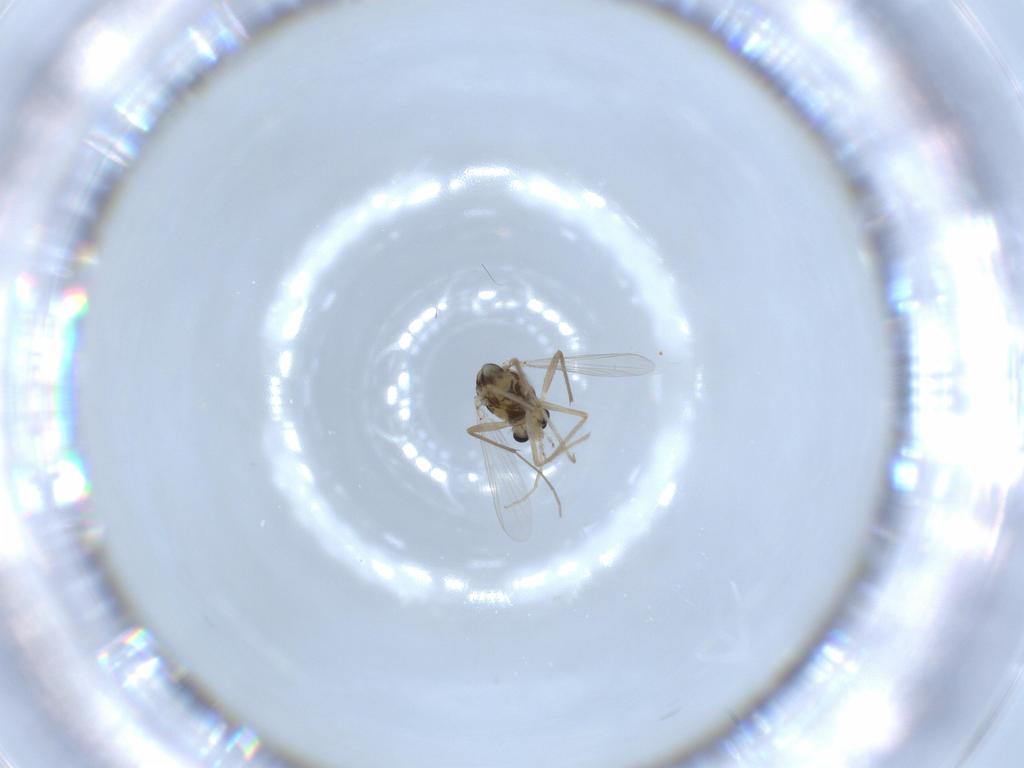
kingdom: Animalia
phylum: Arthropoda
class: Insecta
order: Diptera
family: Chironomidae
